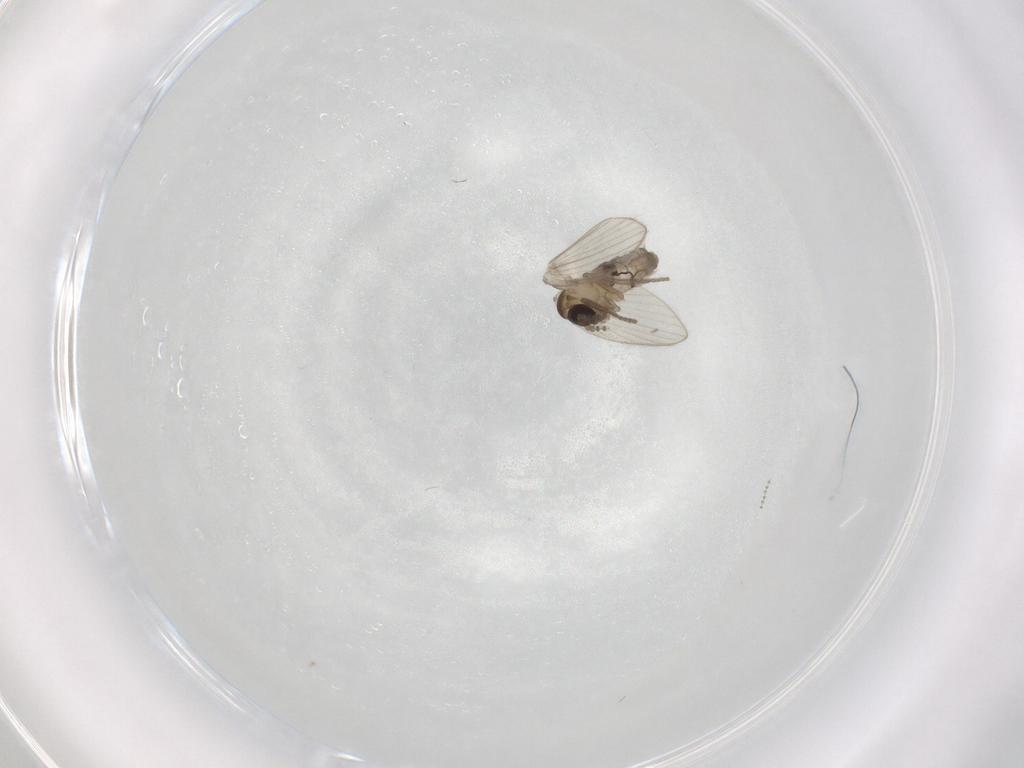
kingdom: Animalia
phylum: Arthropoda
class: Insecta
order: Diptera
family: Psychodidae
